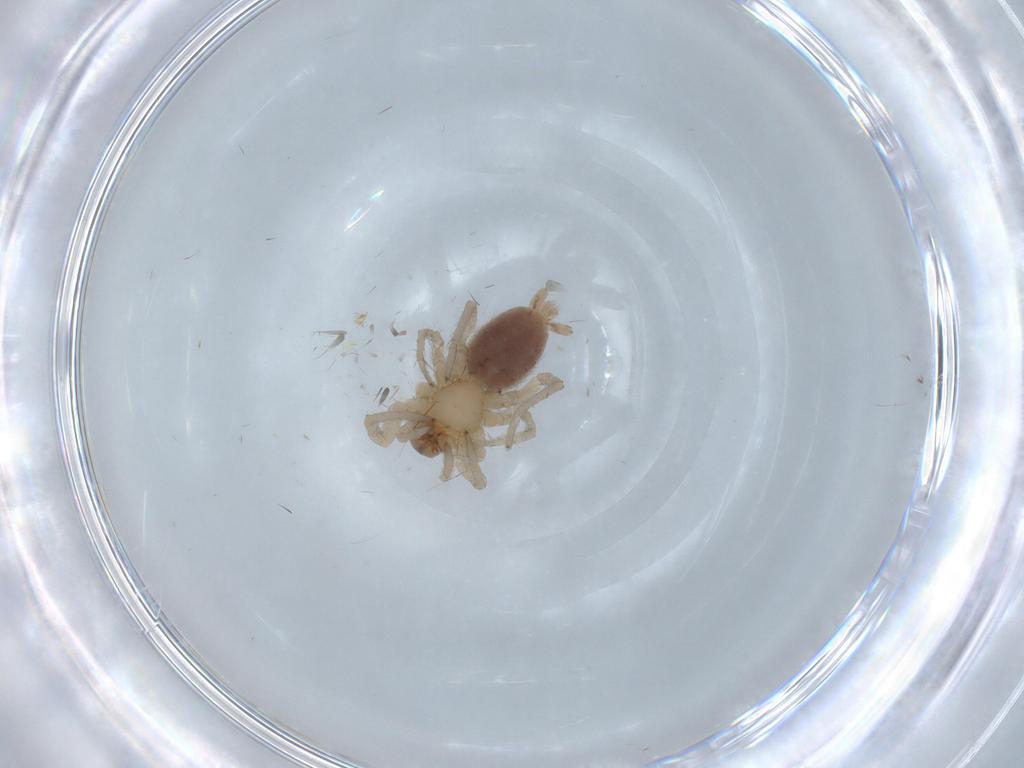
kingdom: Animalia
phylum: Arthropoda
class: Arachnida
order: Araneae
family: Gnaphosidae
